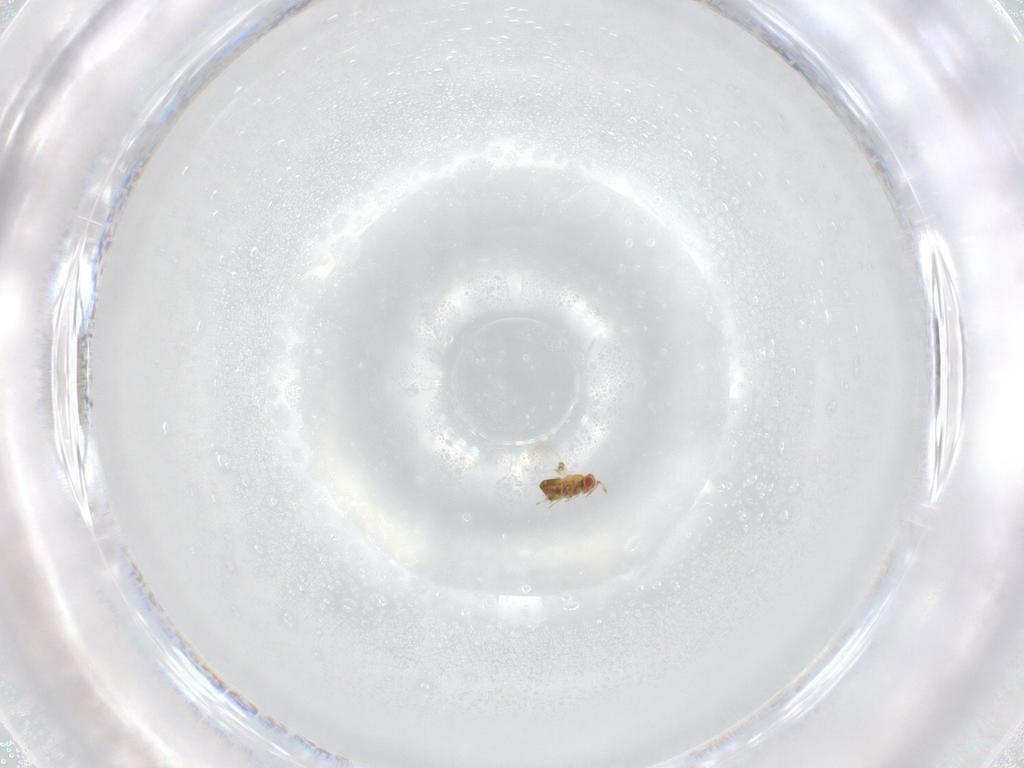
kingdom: Animalia
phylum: Arthropoda
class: Insecta
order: Hymenoptera
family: Trichogrammatidae
